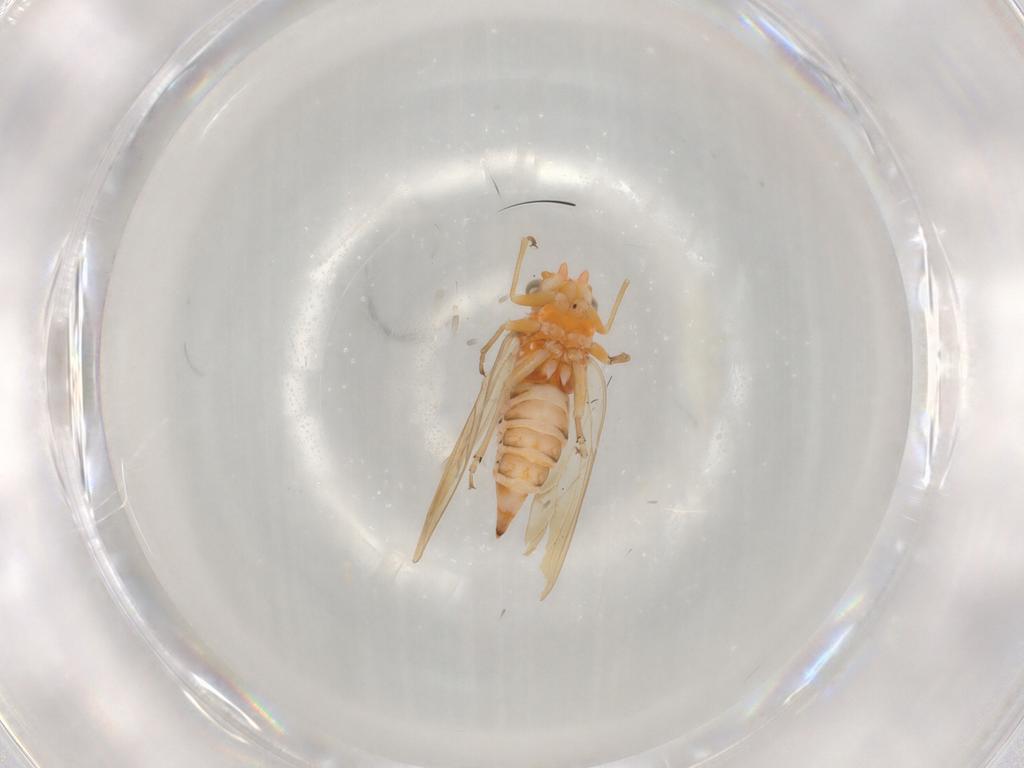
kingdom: Animalia
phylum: Arthropoda
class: Insecta
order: Hemiptera
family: Psyllidae
